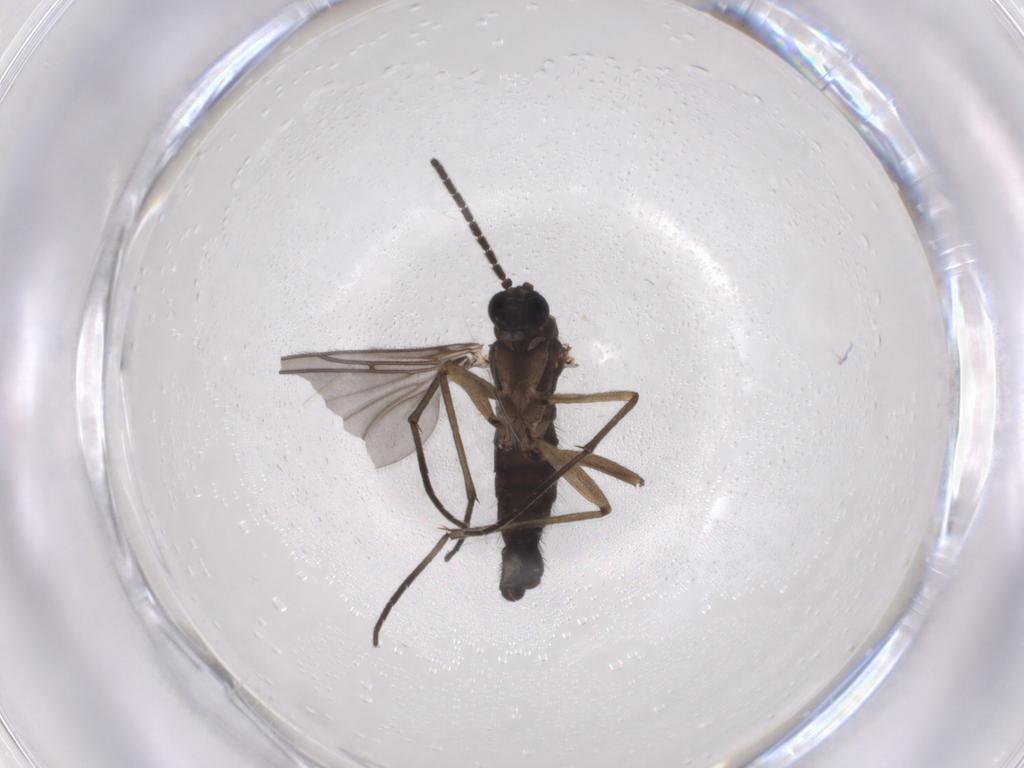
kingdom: Animalia
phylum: Arthropoda
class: Insecta
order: Diptera
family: Sciaridae
